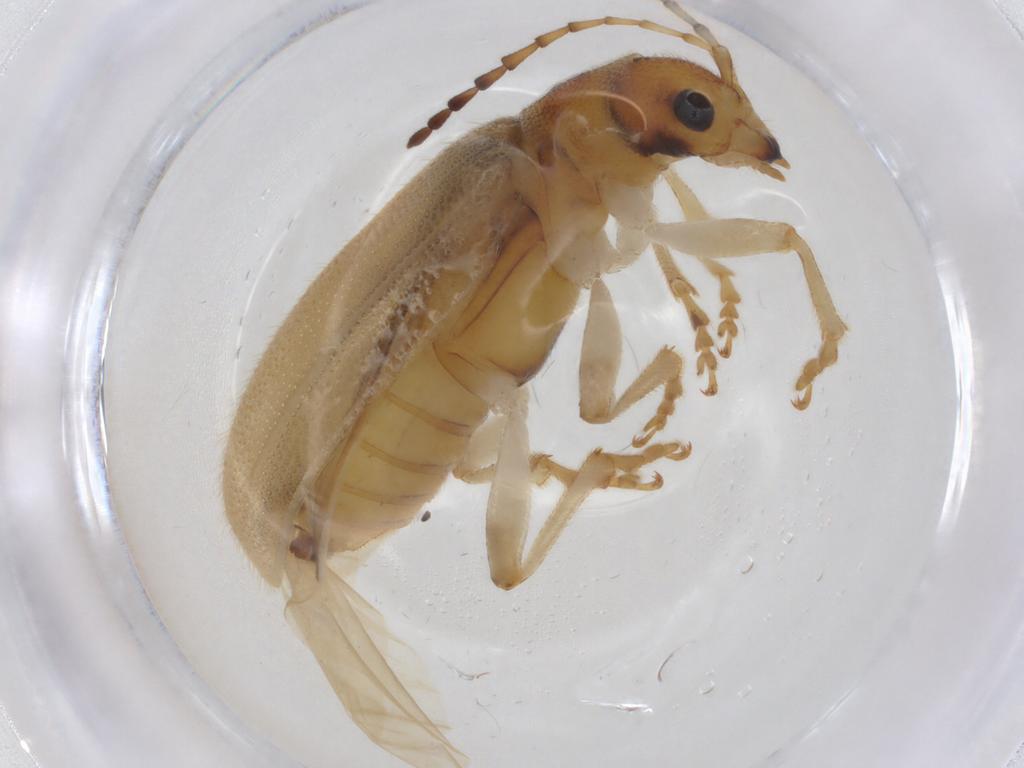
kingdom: Animalia
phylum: Arthropoda
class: Insecta
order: Coleoptera
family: Chrysomelidae
